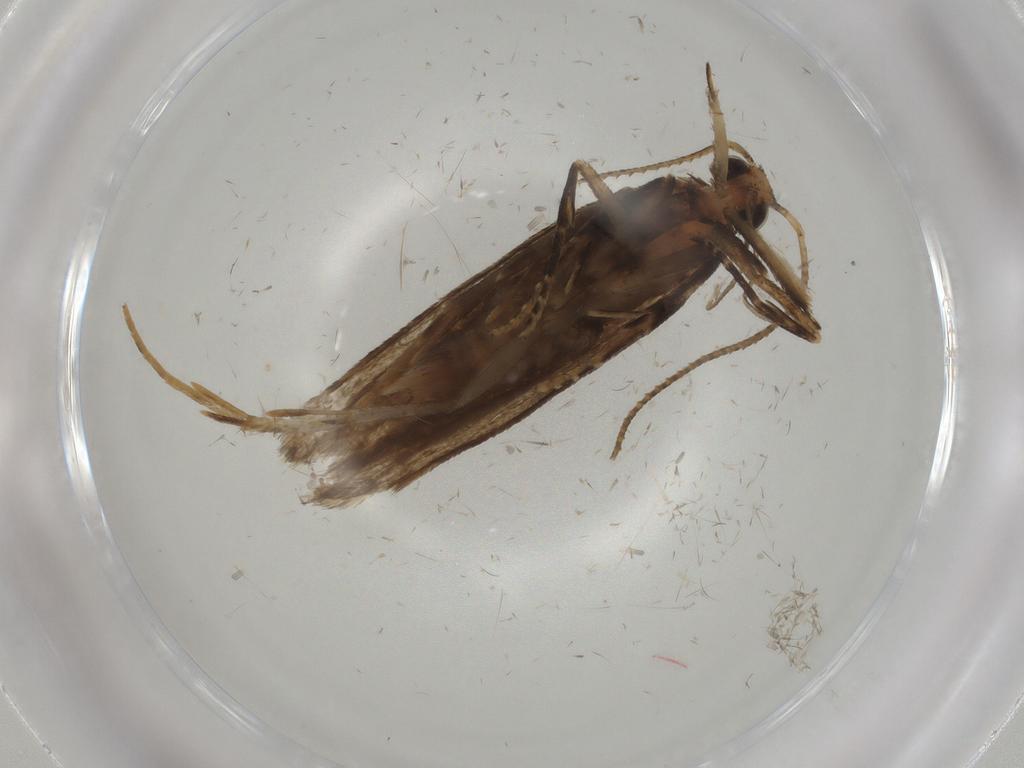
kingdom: Animalia
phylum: Arthropoda
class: Insecta
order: Lepidoptera
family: Gelechiidae
